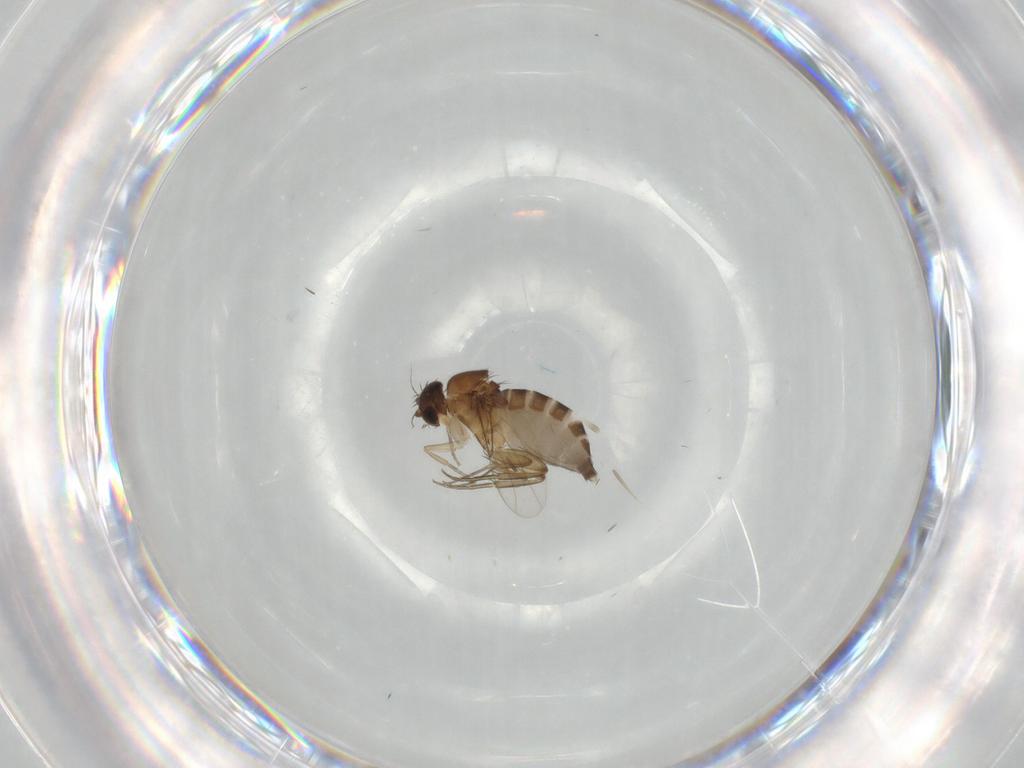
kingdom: Animalia
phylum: Arthropoda
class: Insecta
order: Diptera
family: Phoridae
